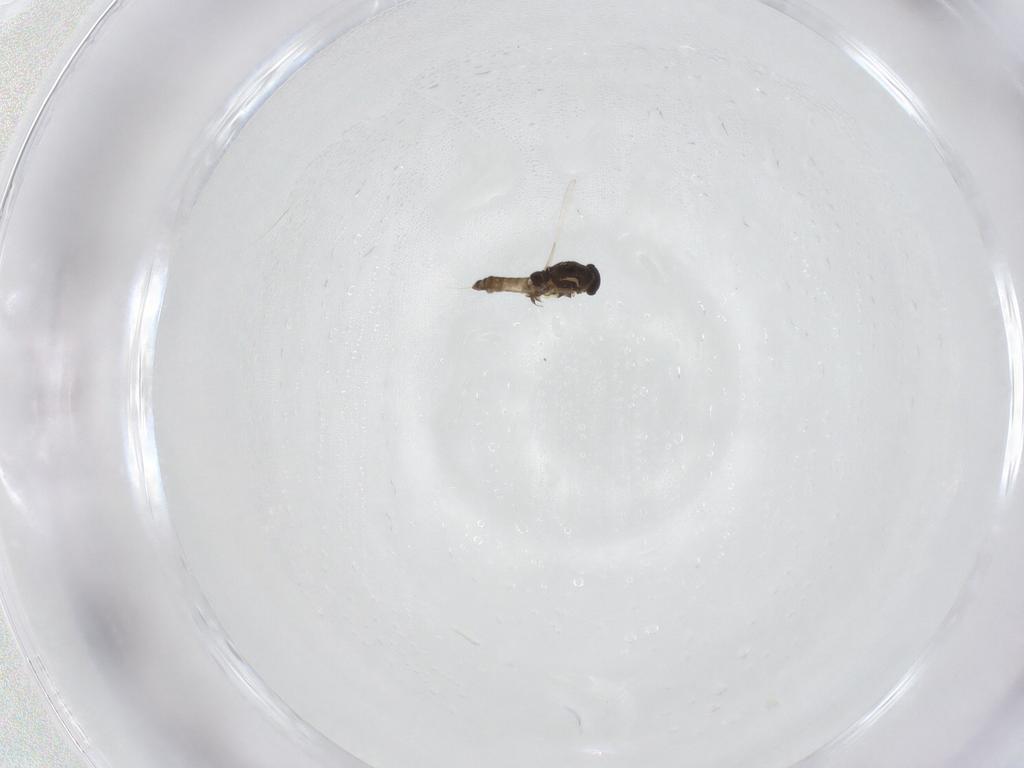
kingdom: Animalia
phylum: Arthropoda
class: Insecta
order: Diptera
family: Chironomidae
